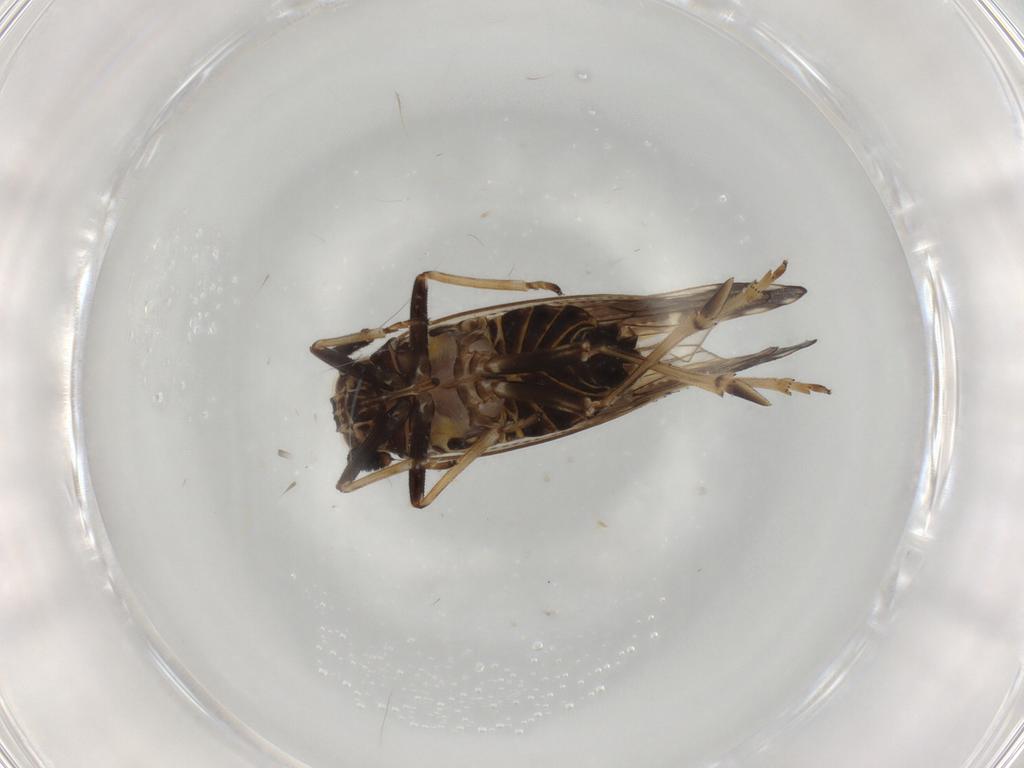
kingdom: Animalia
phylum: Arthropoda
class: Insecta
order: Hemiptera
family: Delphacidae
